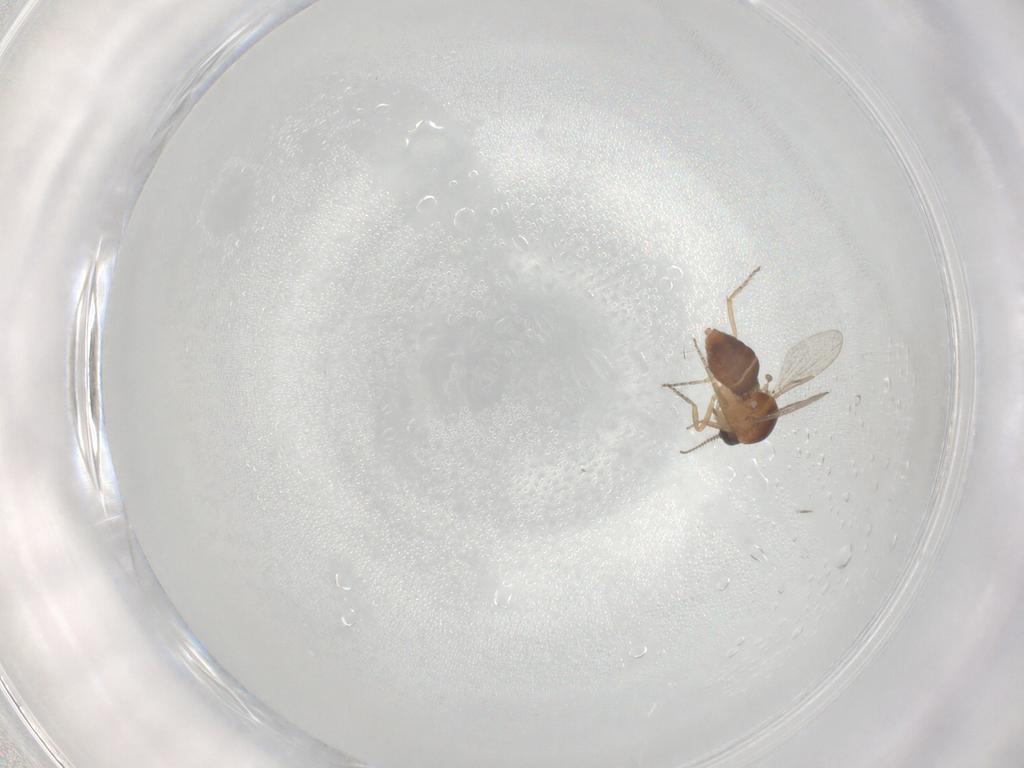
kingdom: Animalia
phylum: Arthropoda
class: Insecta
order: Diptera
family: Ceratopogonidae
